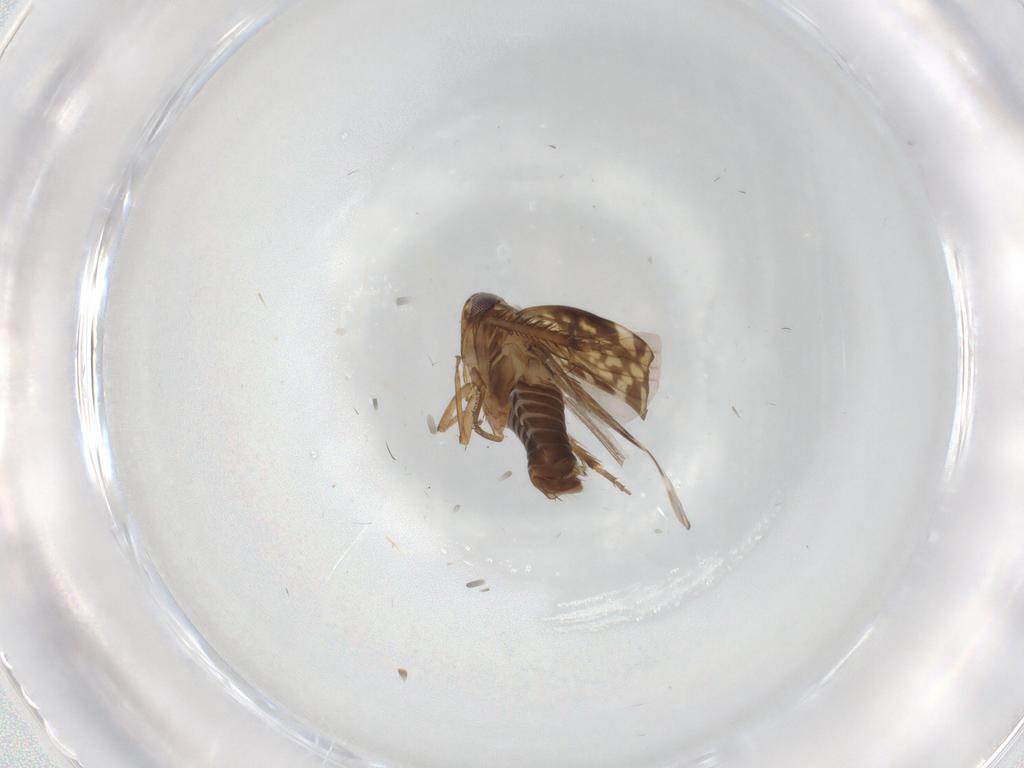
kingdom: Animalia
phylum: Arthropoda
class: Insecta
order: Hemiptera
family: Cicadellidae
